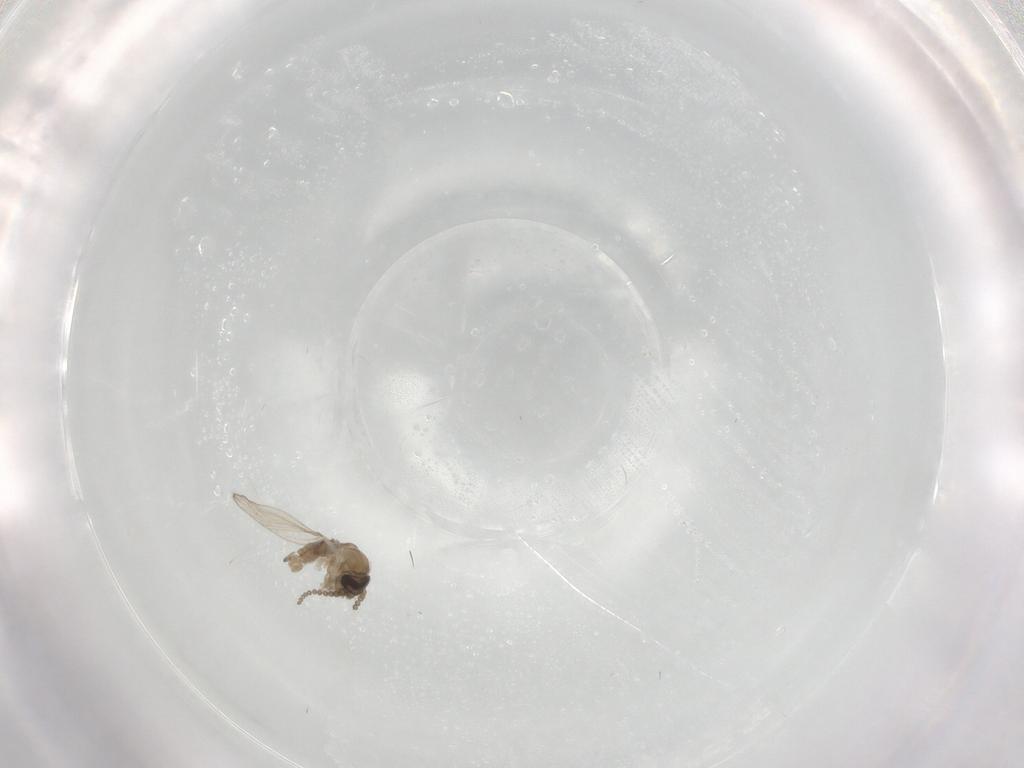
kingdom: Animalia
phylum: Arthropoda
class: Insecta
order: Diptera
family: Psychodidae
